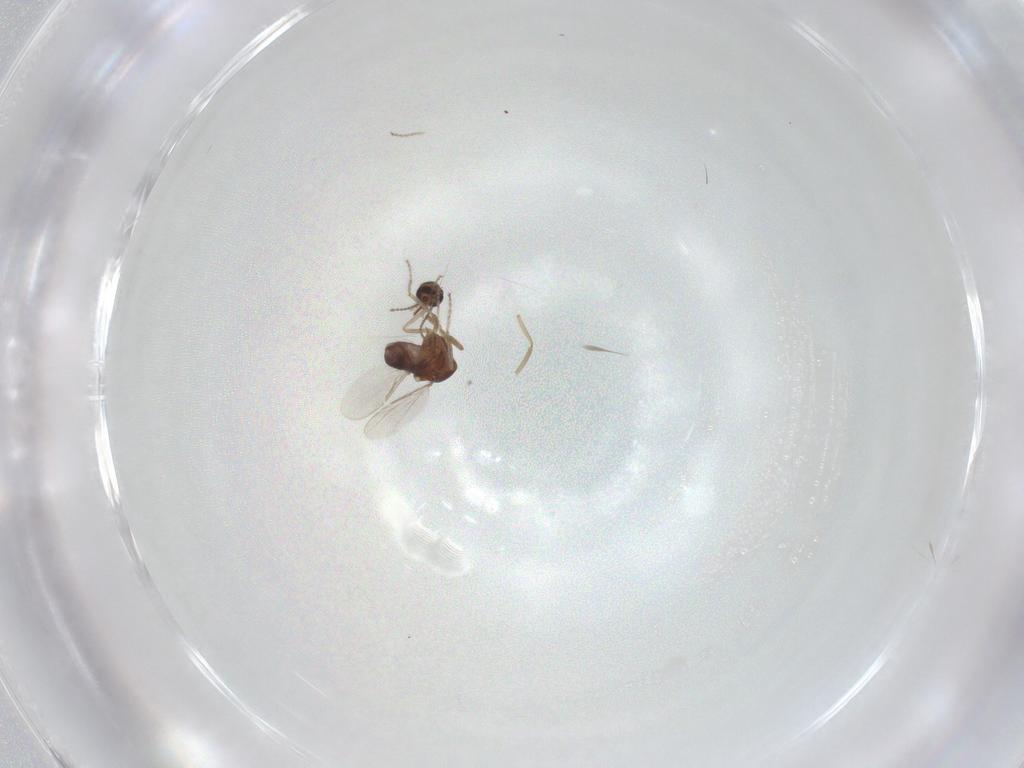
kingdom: Animalia
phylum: Arthropoda
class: Insecta
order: Diptera
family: Ceratopogonidae
